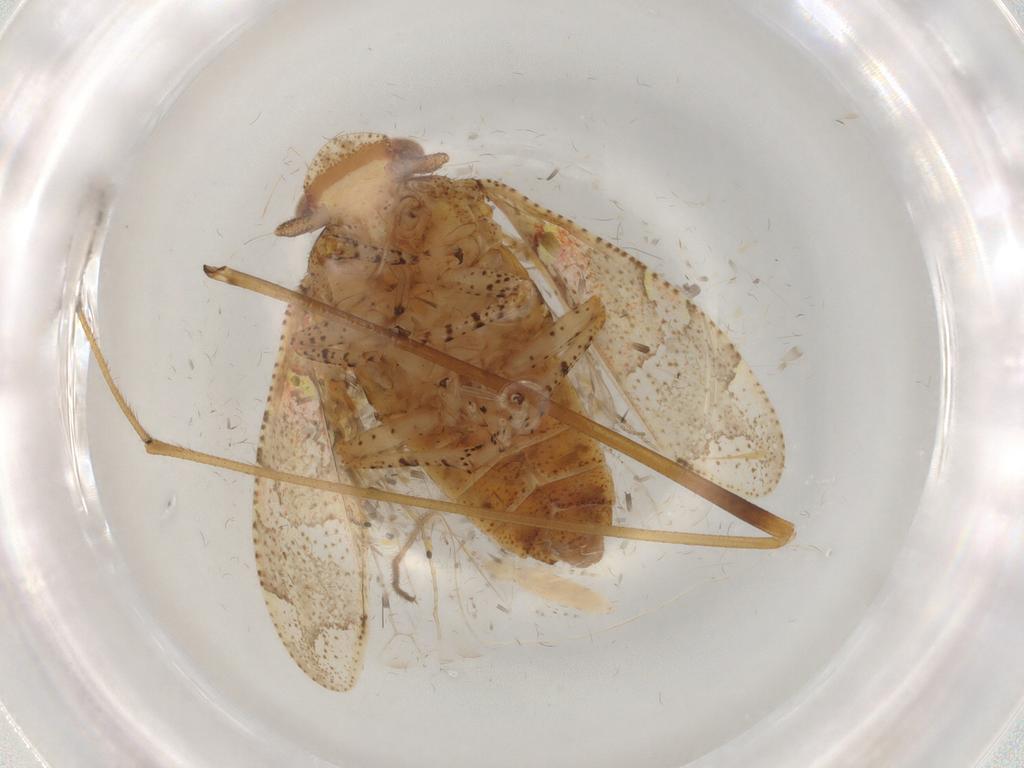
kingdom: Animalia
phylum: Arthropoda
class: Insecta
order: Hemiptera
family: Tettigometridae
